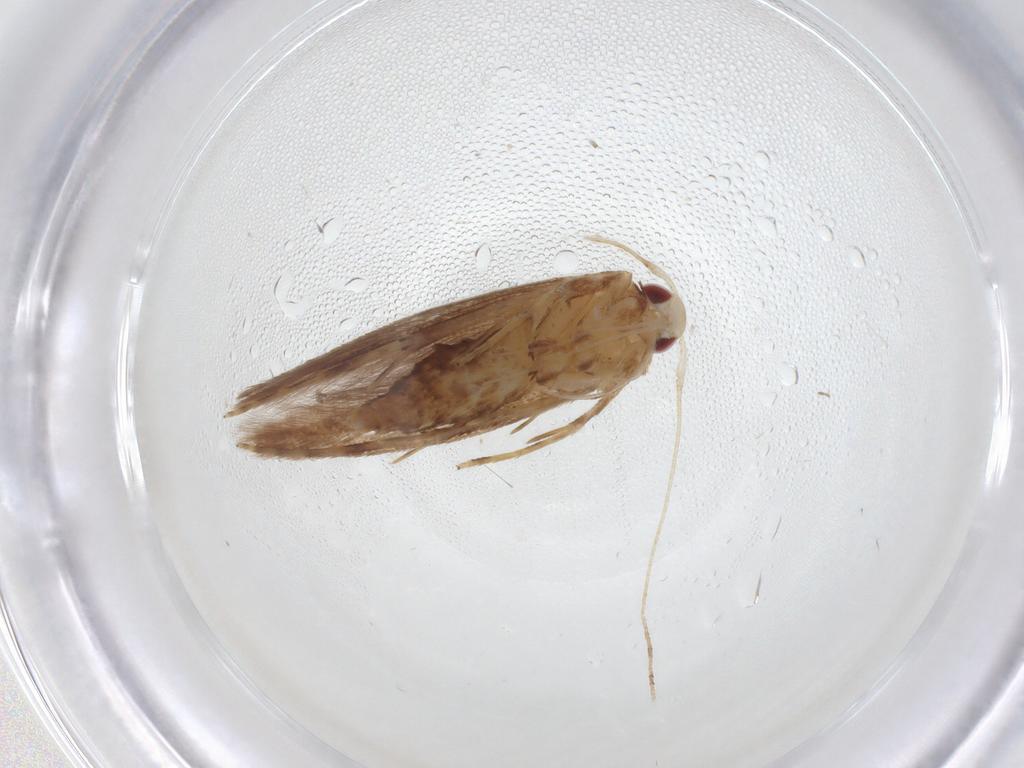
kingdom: Animalia
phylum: Arthropoda
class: Insecta
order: Lepidoptera
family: Cosmopterigidae
